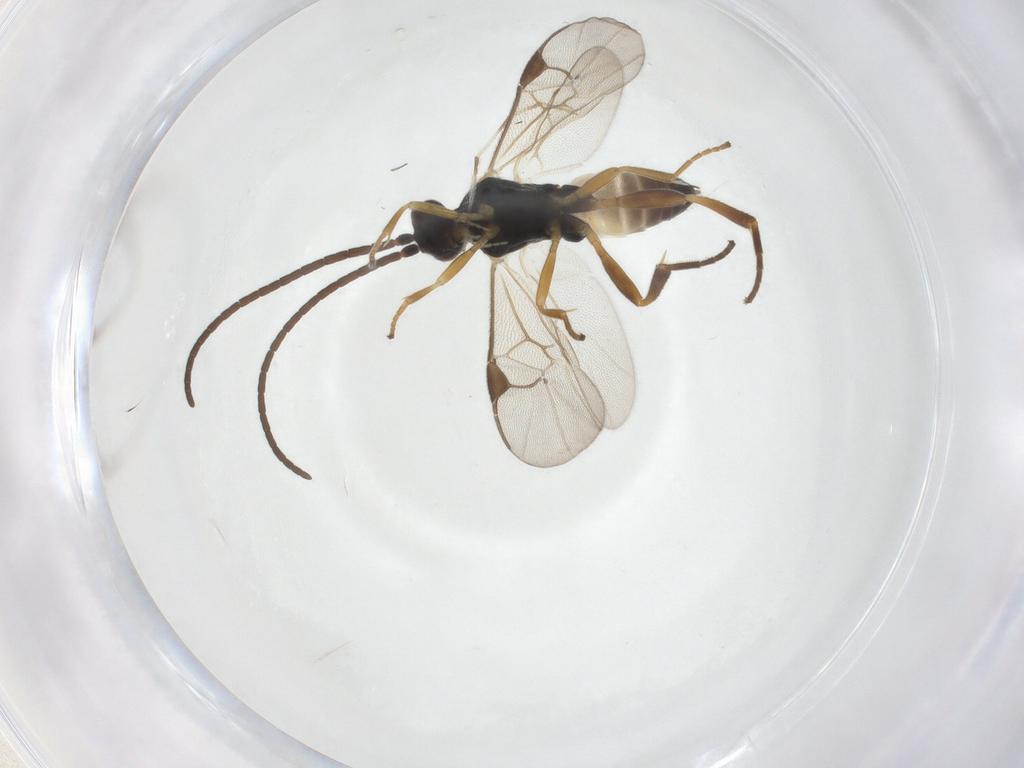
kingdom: Animalia
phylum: Arthropoda
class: Insecta
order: Hymenoptera
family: Braconidae
